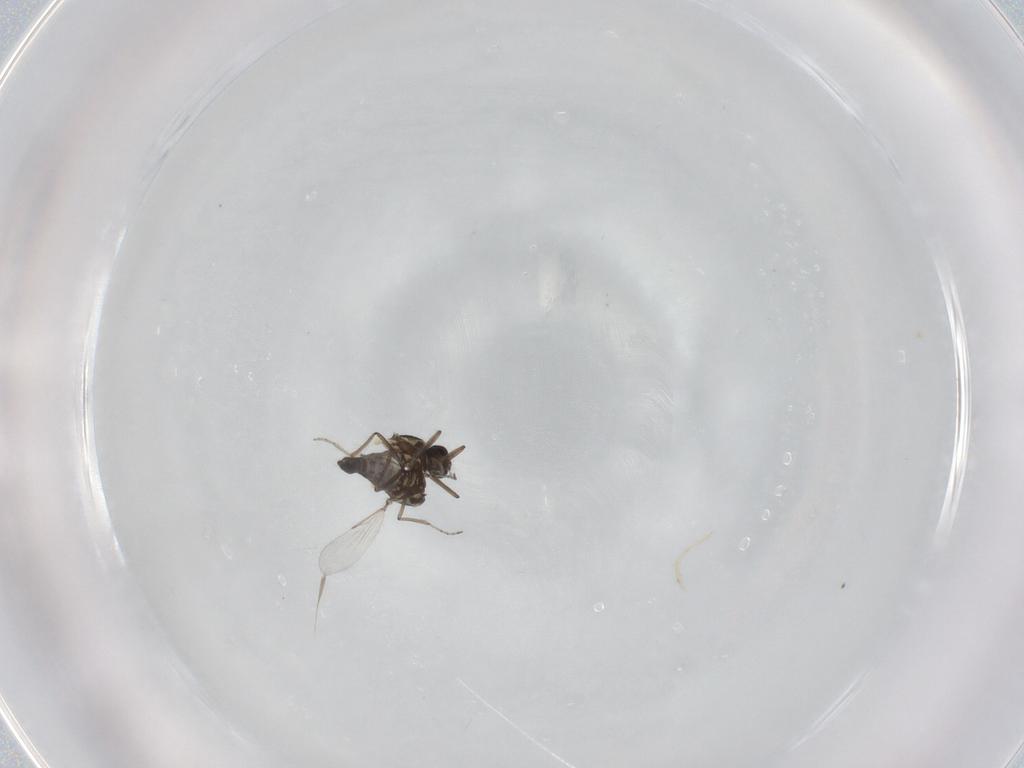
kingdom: Animalia
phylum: Arthropoda
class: Insecta
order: Diptera
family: Ceratopogonidae
